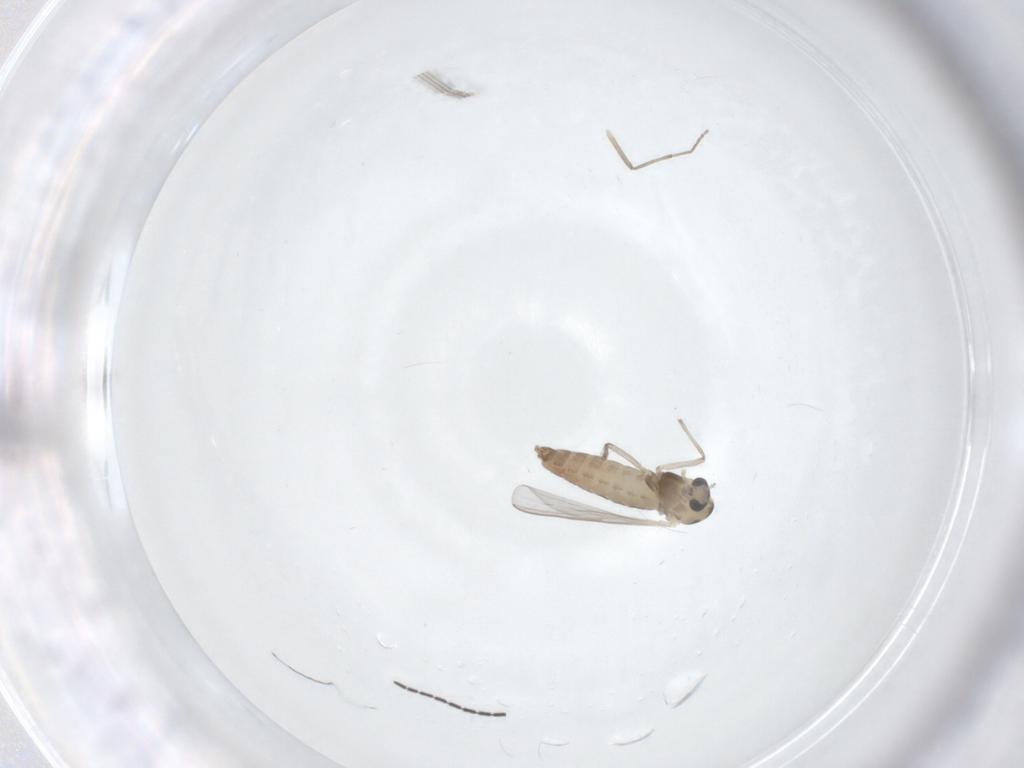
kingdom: Animalia
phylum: Arthropoda
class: Insecta
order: Diptera
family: Chironomidae
